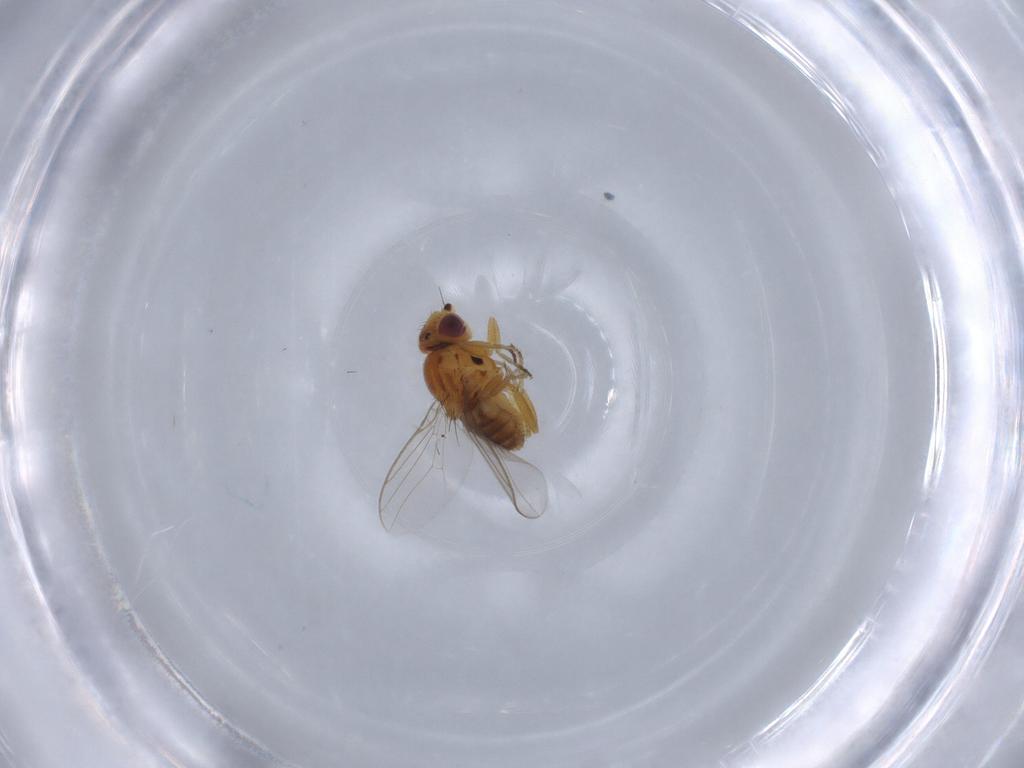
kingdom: Animalia
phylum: Arthropoda
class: Insecta
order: Diptera
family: Chloropidae
